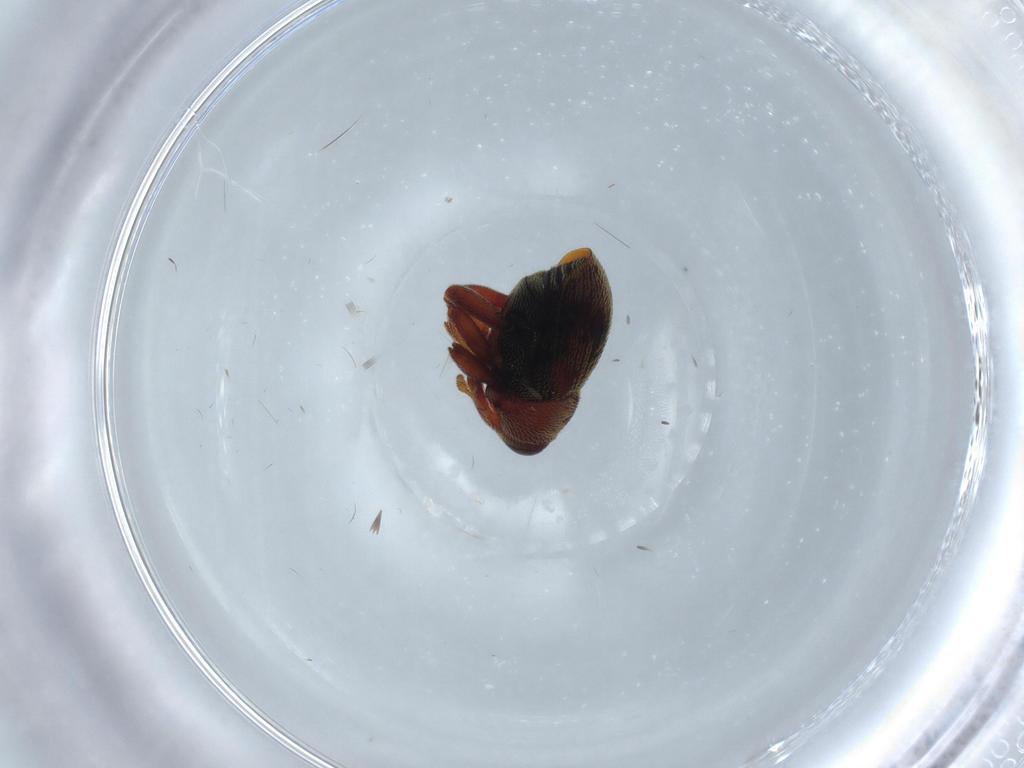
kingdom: Animalia
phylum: Arthropoda
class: Insecta
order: Coleoptera
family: Curculionidae
